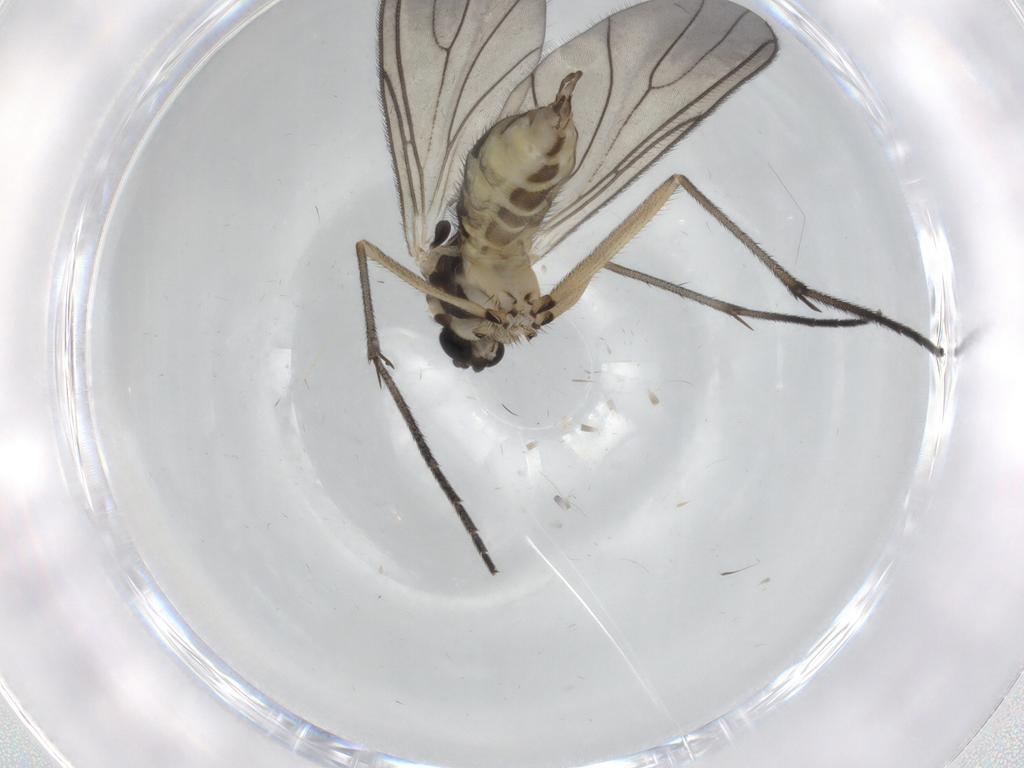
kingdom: Animalia
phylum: Arthropoda
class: Insecta
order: Diptera
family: Sciaridae
